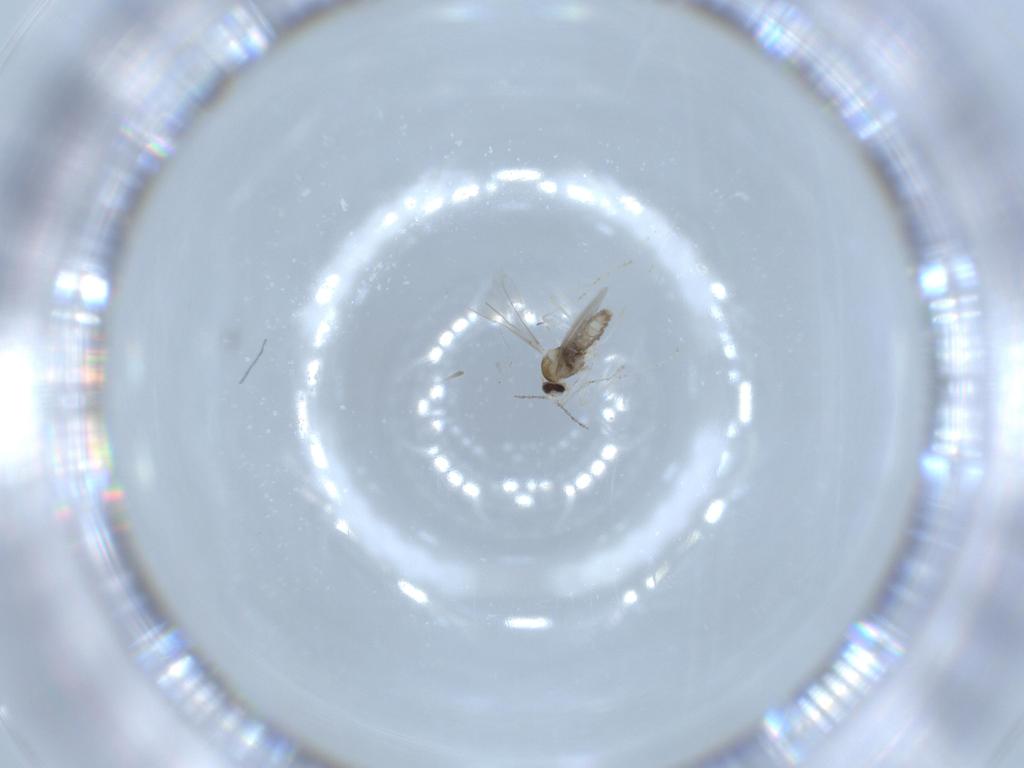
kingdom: Animalia
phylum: Arthropoda
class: Insecta
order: Diptera
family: Cecidomyiidae
